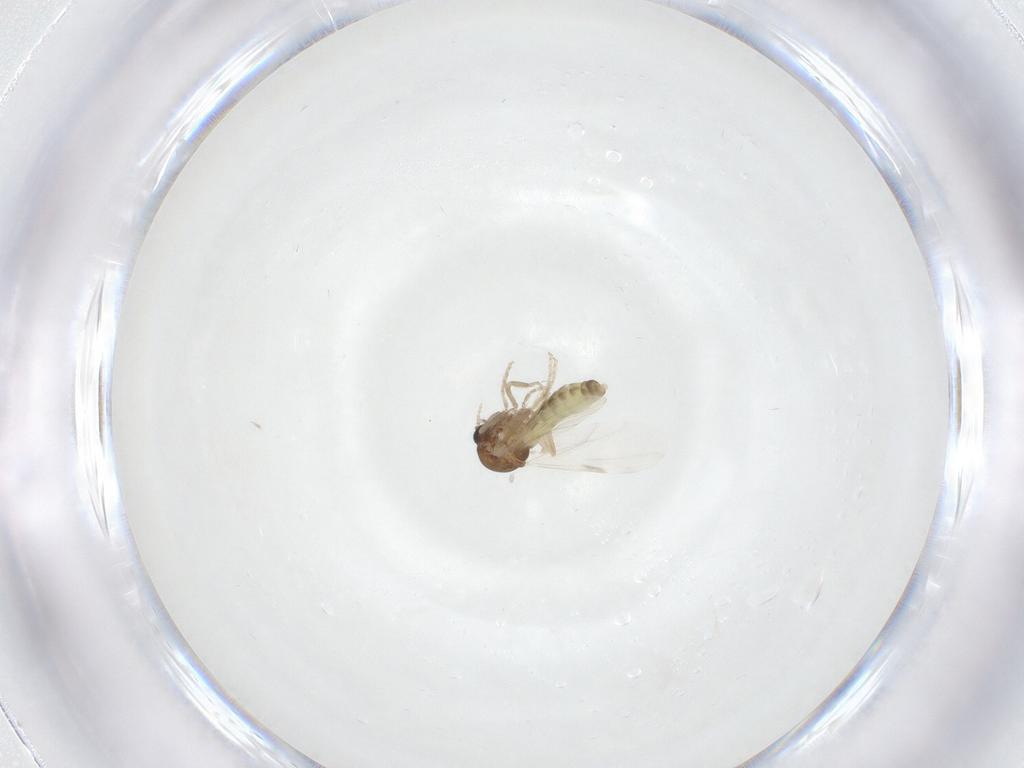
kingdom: Animalia
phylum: Arthropoda
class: Insecta
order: Diptera
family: Ceratopogonidae
